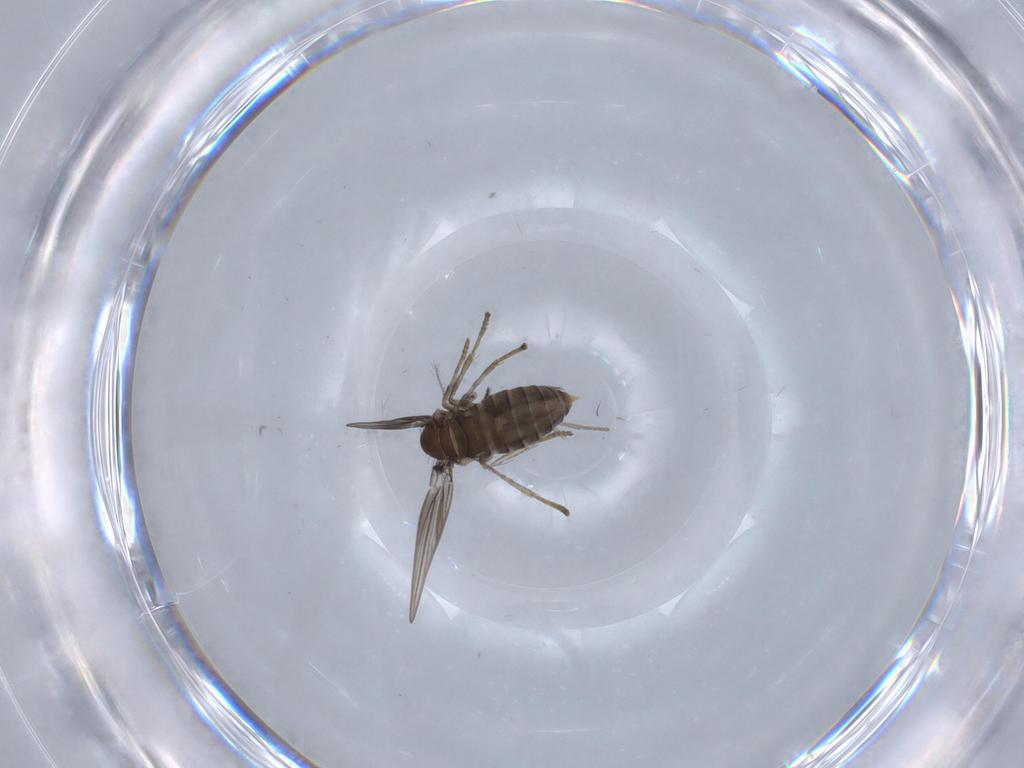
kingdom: Animalia
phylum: Arthropoda
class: Insecta
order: Diptera
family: Psychodidae
